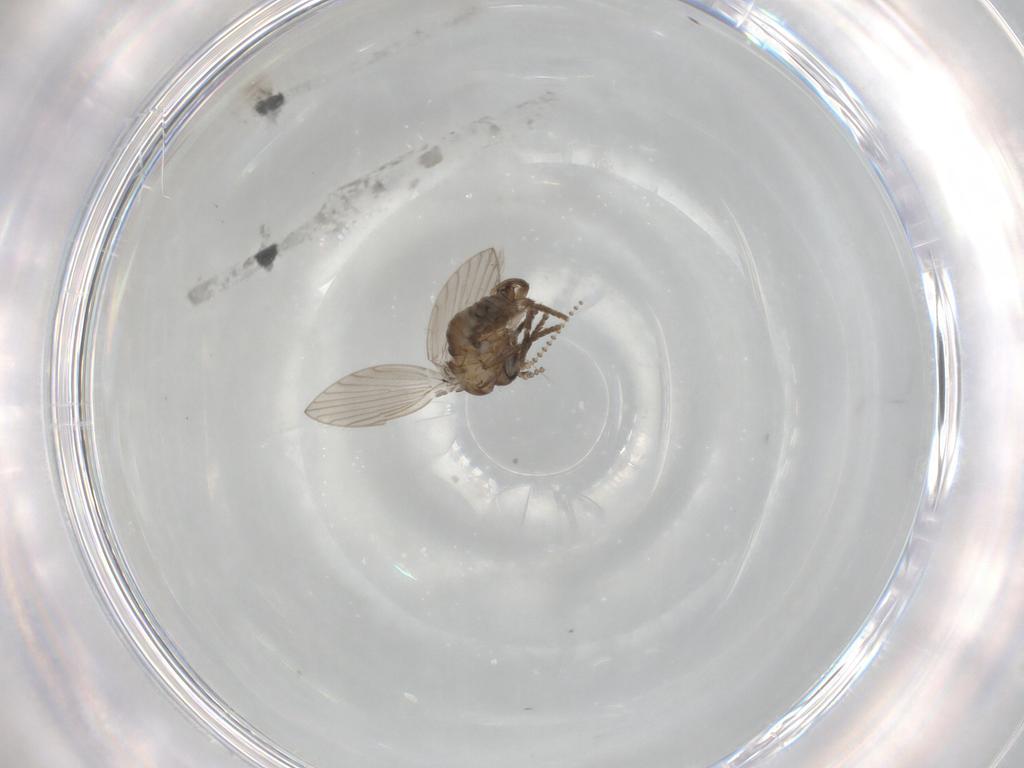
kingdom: Animalia
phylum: Arthropoda
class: Insecta
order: Diptera
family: Psychodidae
